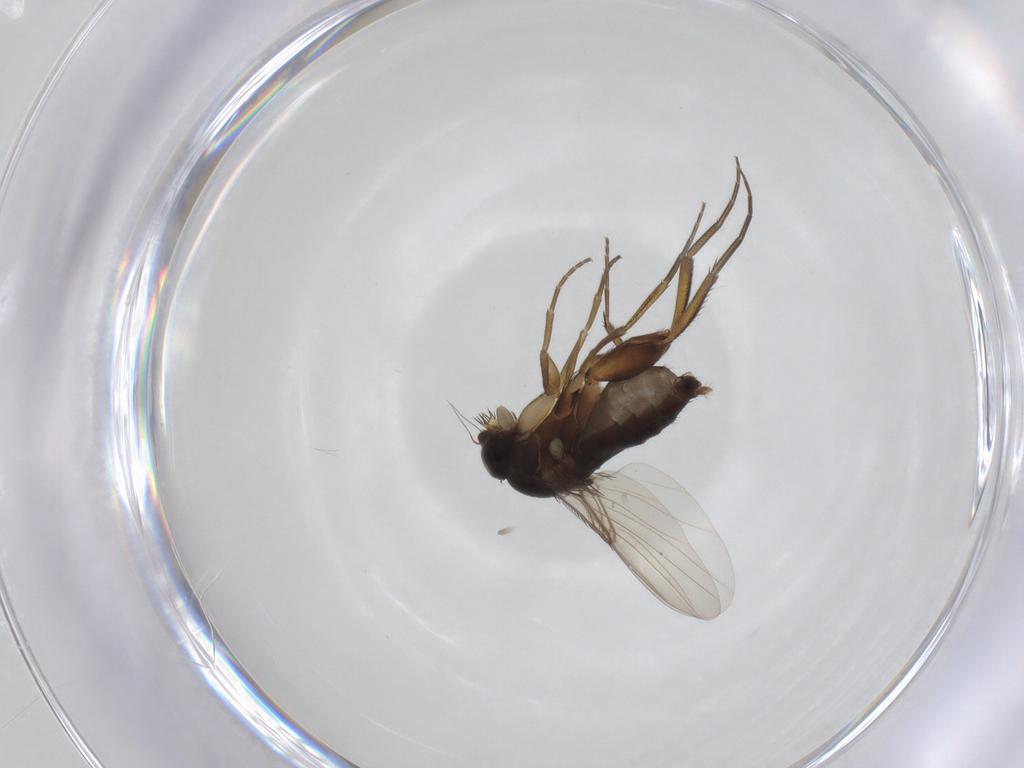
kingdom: Animalia
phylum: Arthropoda
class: Insecta
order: Diptera
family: Phoridae
